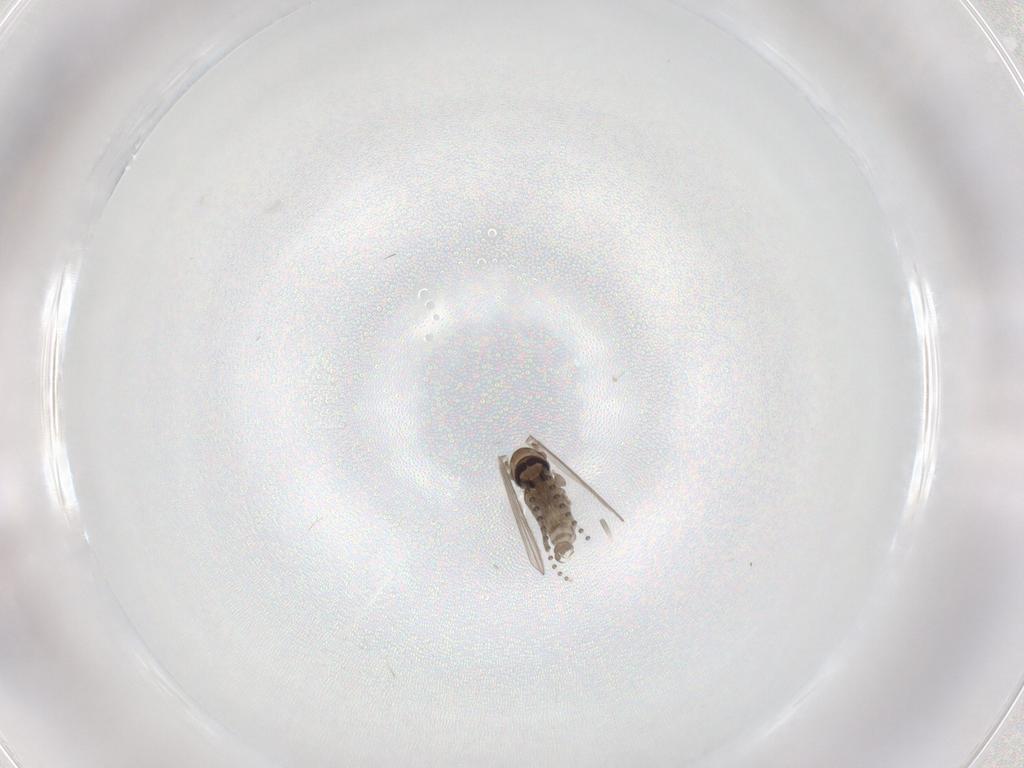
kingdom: Animalia
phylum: Arthropoda
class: Insecta
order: Diptera
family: Psychodidae
